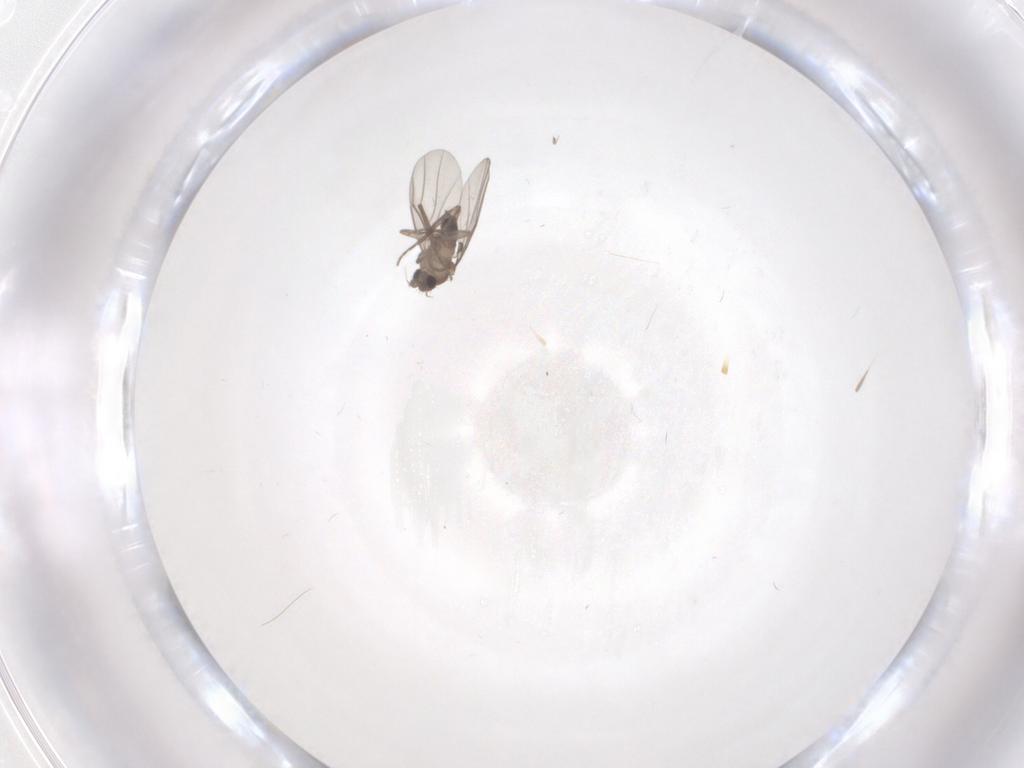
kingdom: Animalia
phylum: Arthropoda
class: Insecta
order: Diptera
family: Chironomidae
